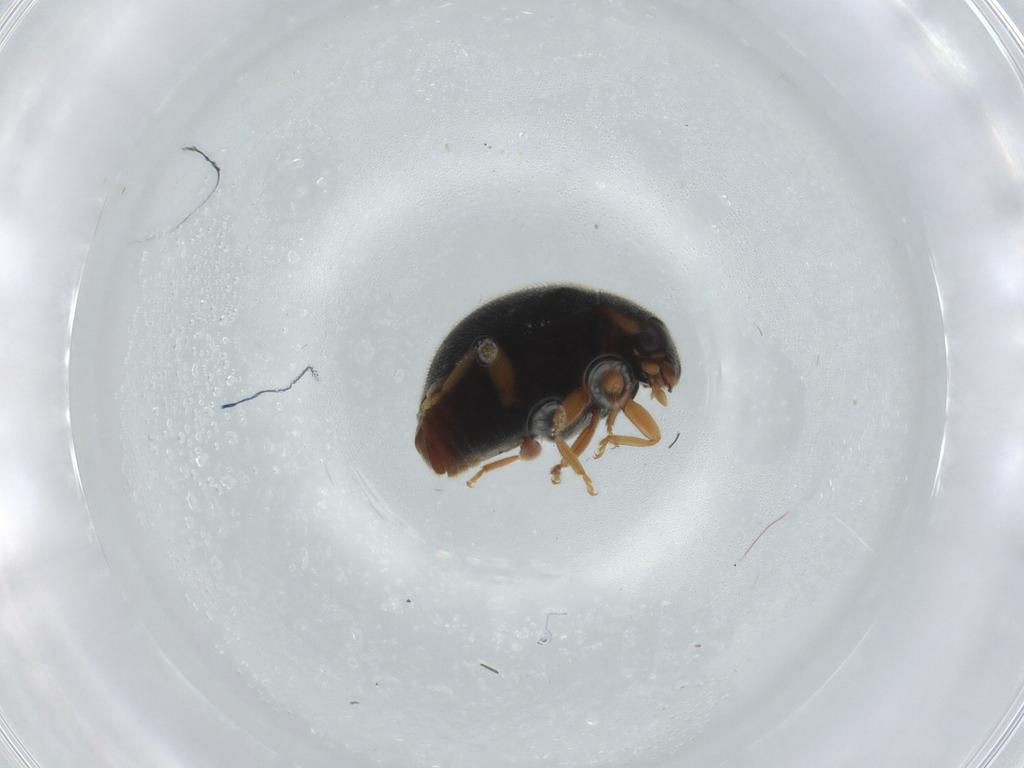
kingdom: Animalia
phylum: Arthropoda
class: Insecta
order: Coleoptera
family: Coccinellidae
